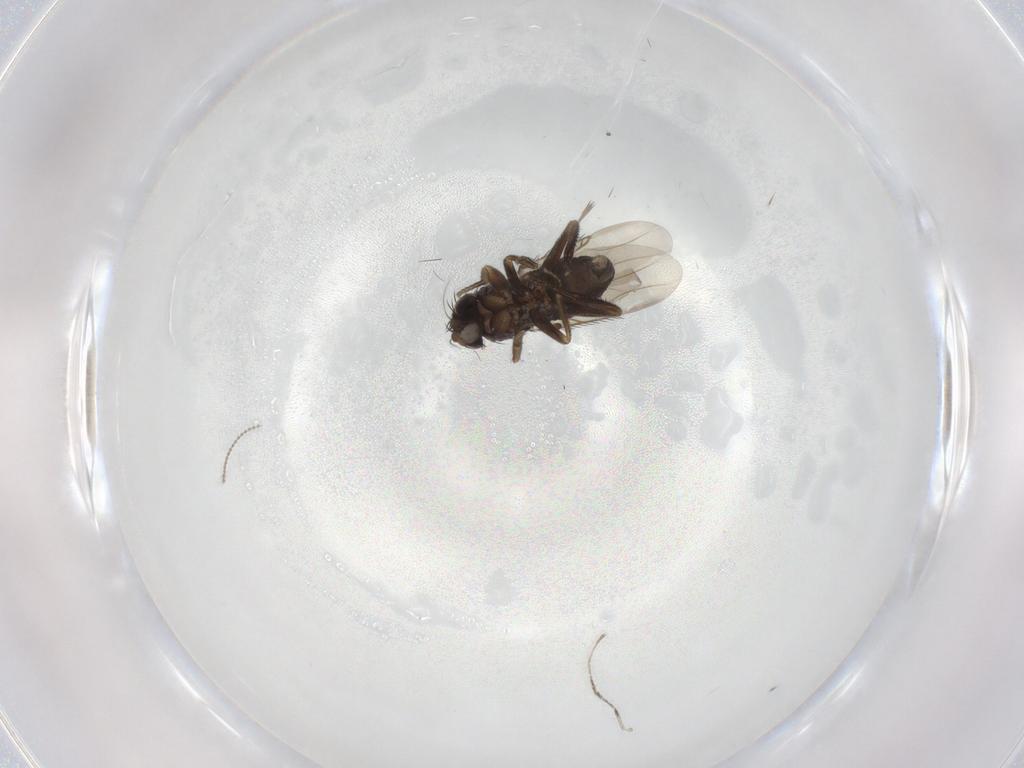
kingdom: Animalia
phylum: Arthropoda
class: Insecta
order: Diptera
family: Phoridae
